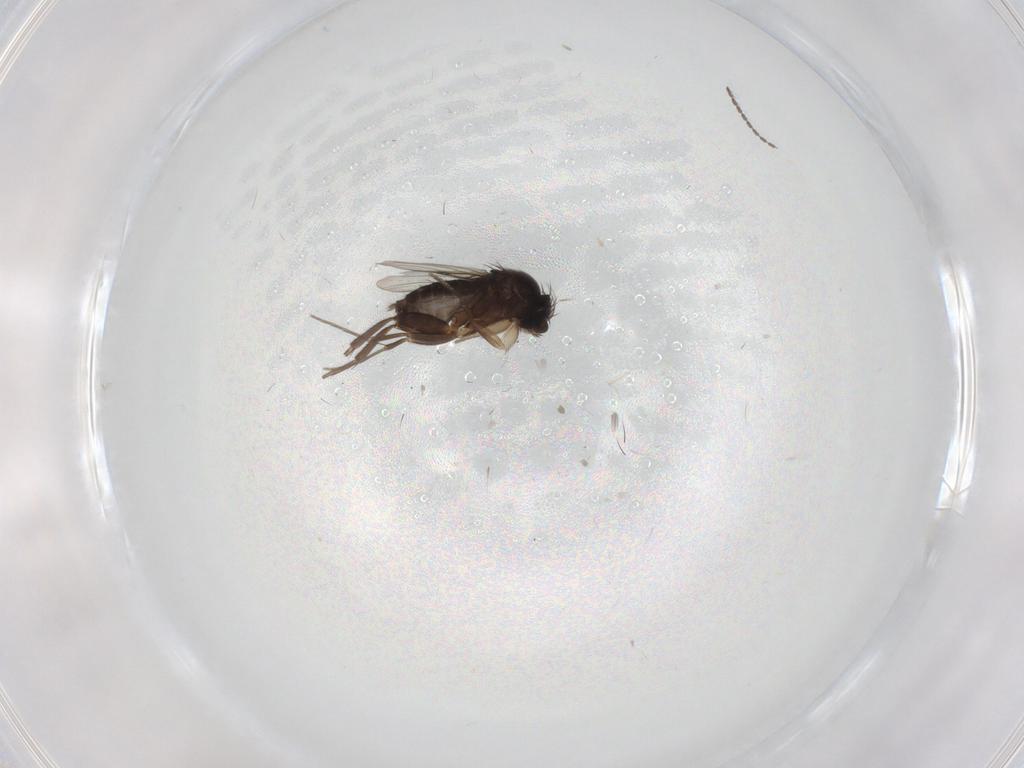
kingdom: Animalia
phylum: Arthropoda
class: Insecta
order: Diptera
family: Phoridae
